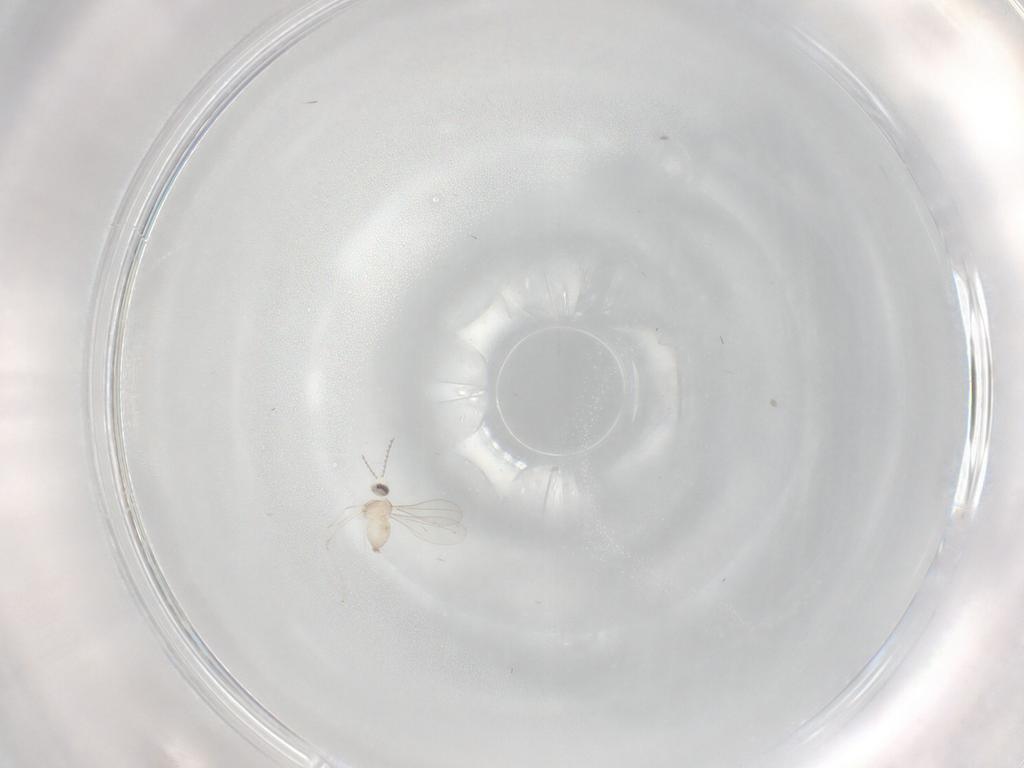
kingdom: Animalia
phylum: Arthropoda
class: Insecta
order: Diptera
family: Cecidomyiidae
